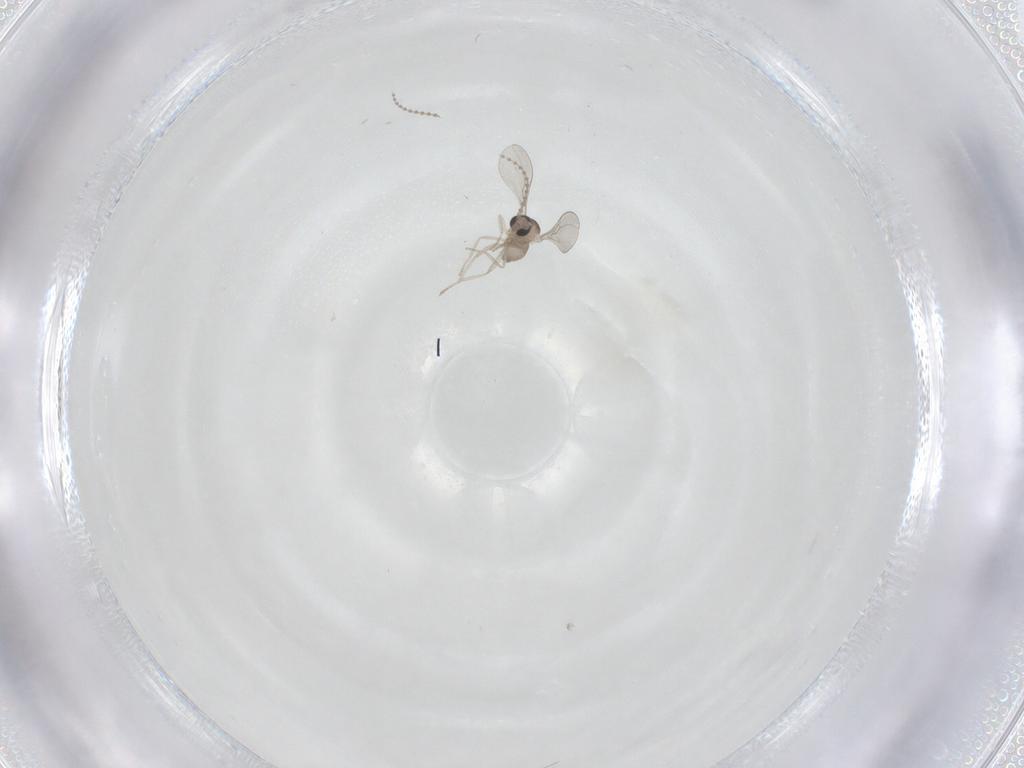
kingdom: Animalia
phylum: Arthropoda
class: Insecta
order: Diptera
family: Cecidomyiidae
